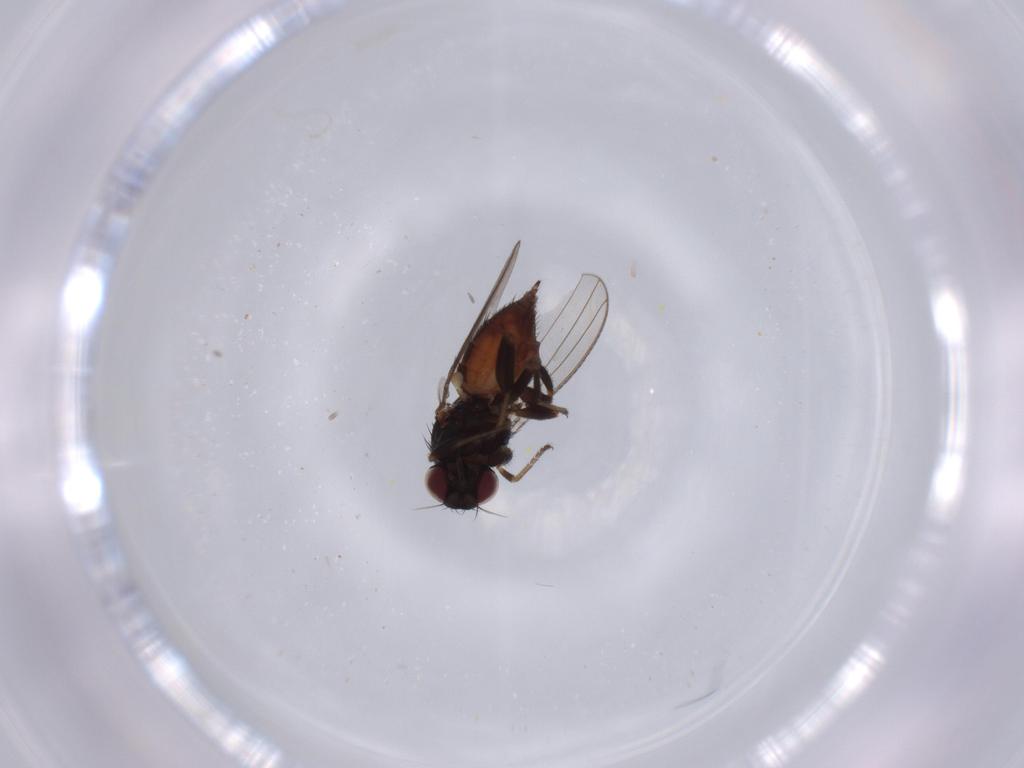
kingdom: Animalia
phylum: Arthropoda
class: Insecta
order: Diptera
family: Milichiidae
